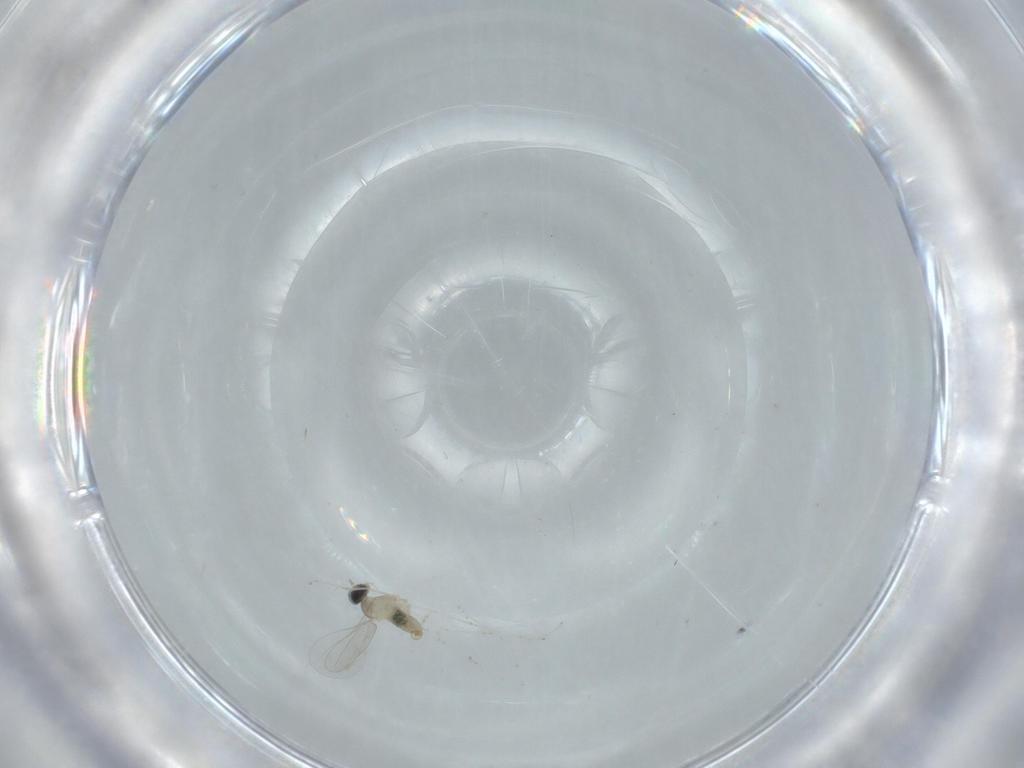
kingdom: Animalia
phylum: Arthropoda
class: Insecta
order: Diptera
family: Cecidomyiidae
